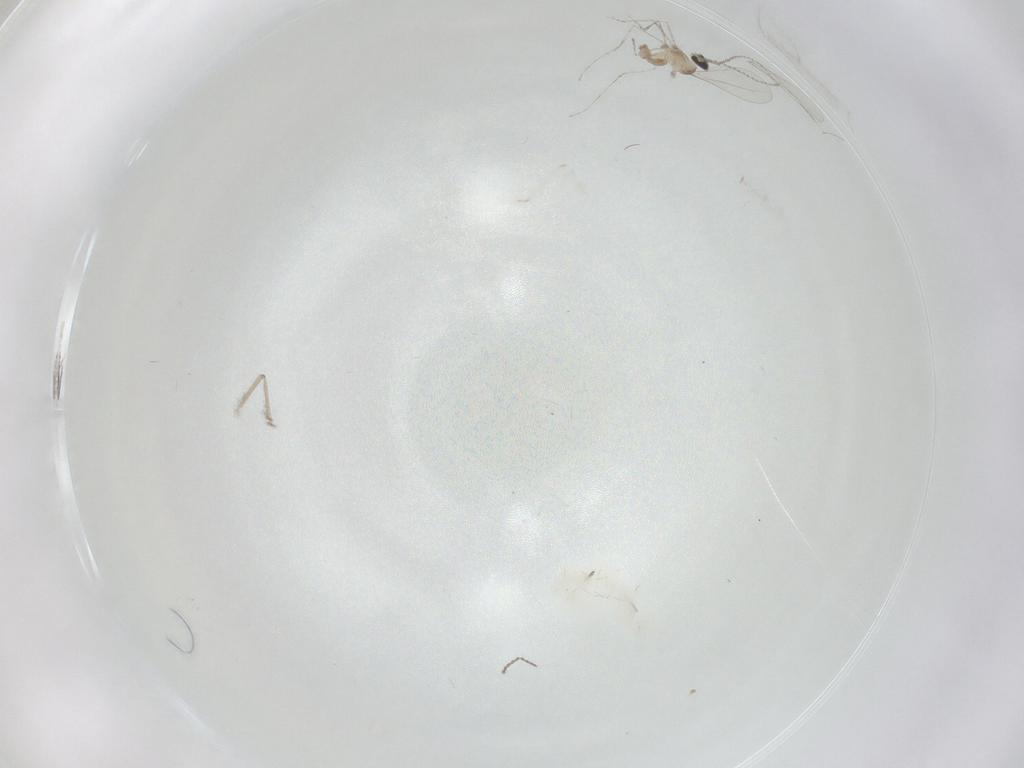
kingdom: Animalia
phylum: Arthropoda
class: Insecta
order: Diptera
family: Cecidomyiidae
